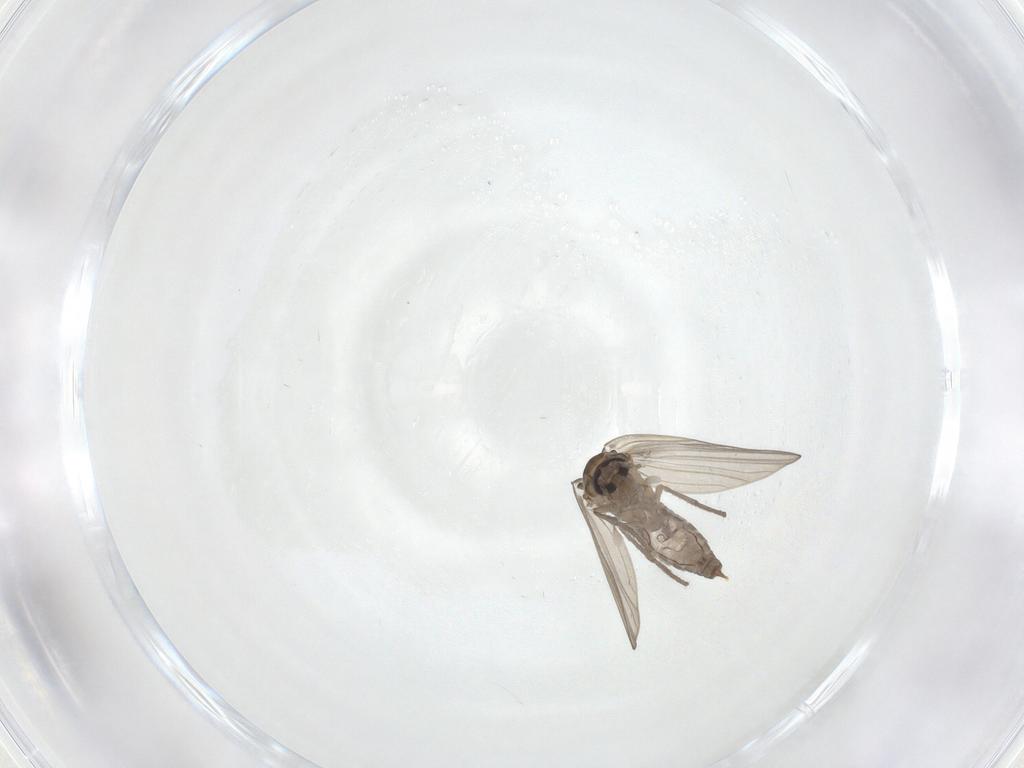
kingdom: Animalia
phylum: Arthropoda
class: Insecta
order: Diptera
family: Psychodidae
